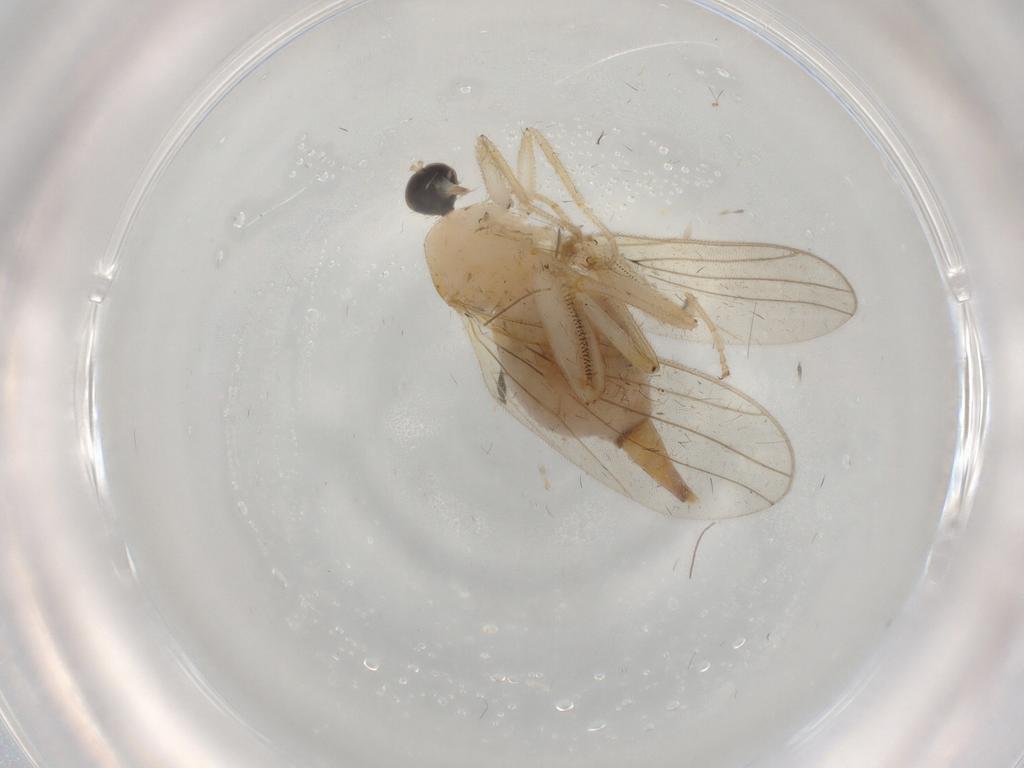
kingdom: Animalia
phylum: Arthropoda
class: Insecta
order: Diptera
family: Hybotidae
